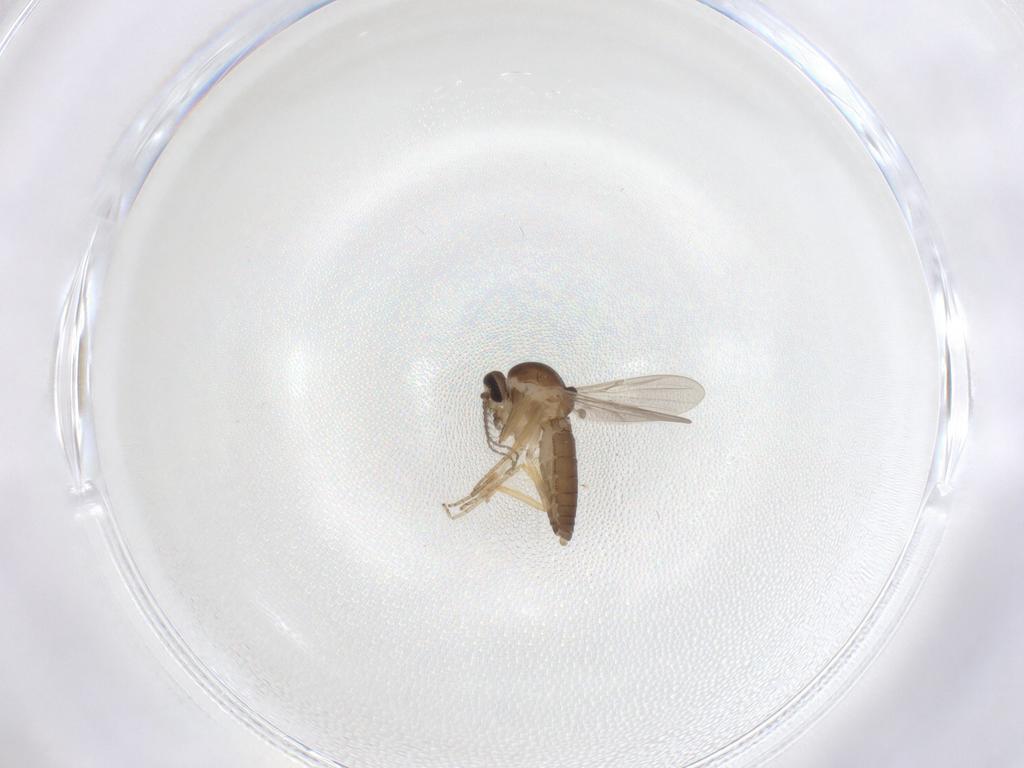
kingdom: Animalia
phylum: Arthropoda
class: Insecta
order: Diptera
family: Ceratopogonidae
